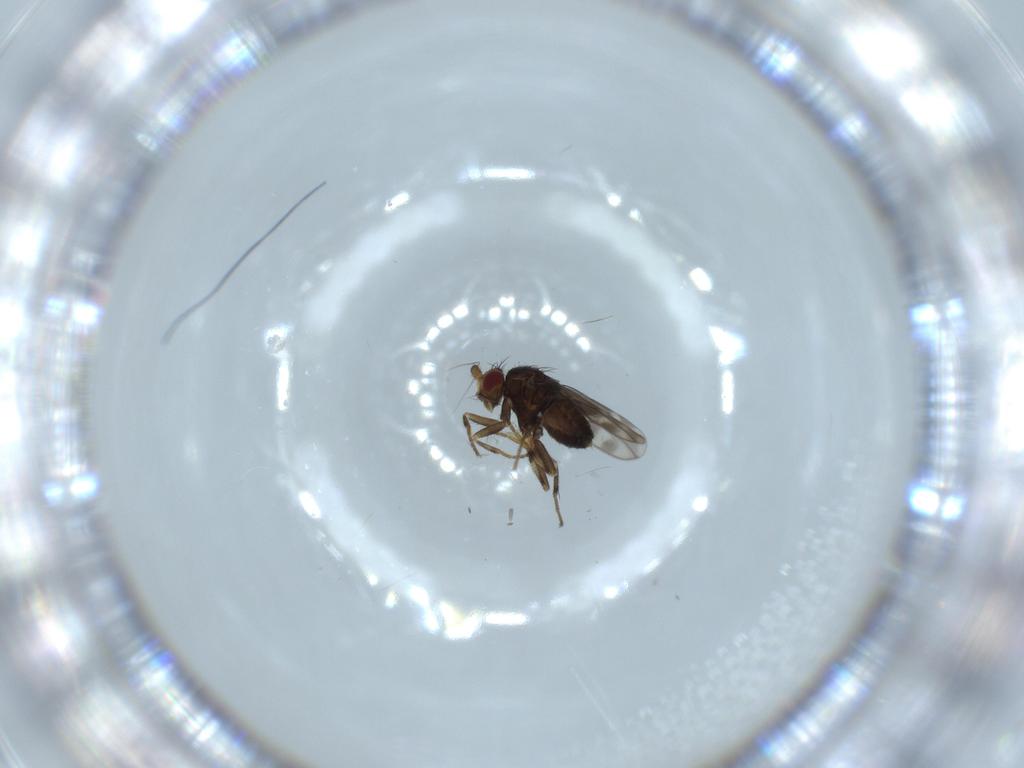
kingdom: Animalia
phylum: Arthropoda
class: Insecta
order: Diptera
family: Sphaeroceridae
